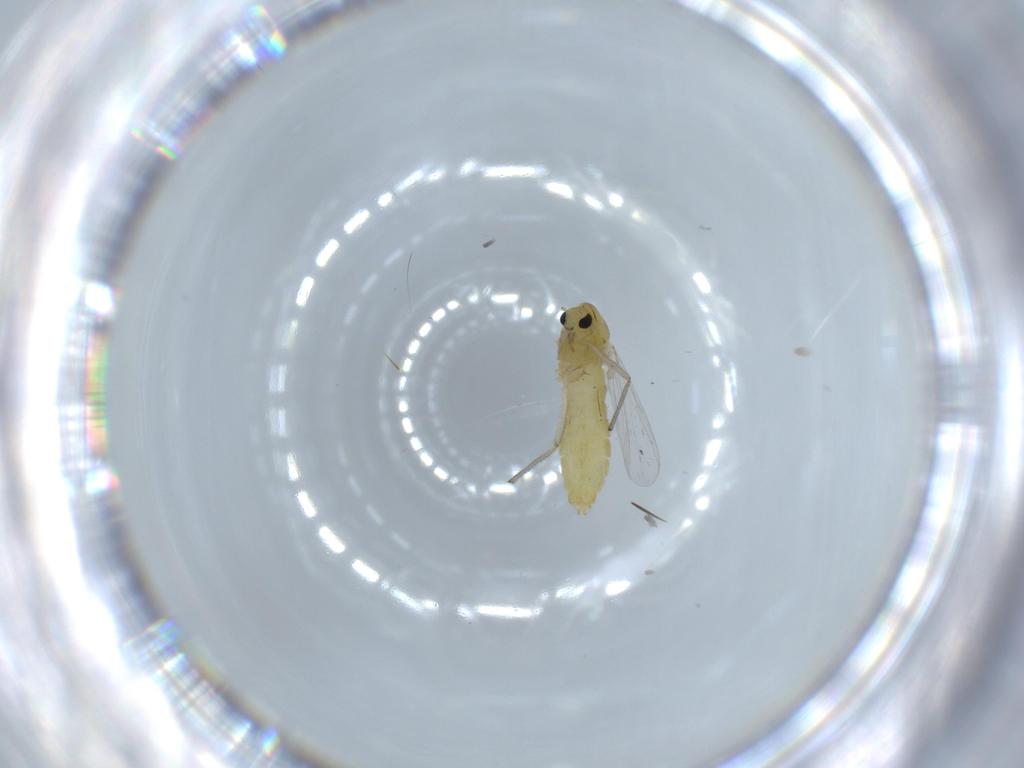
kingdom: Animalia
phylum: Arthropoda
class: Insecta
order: Diptera
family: Chironomidae
